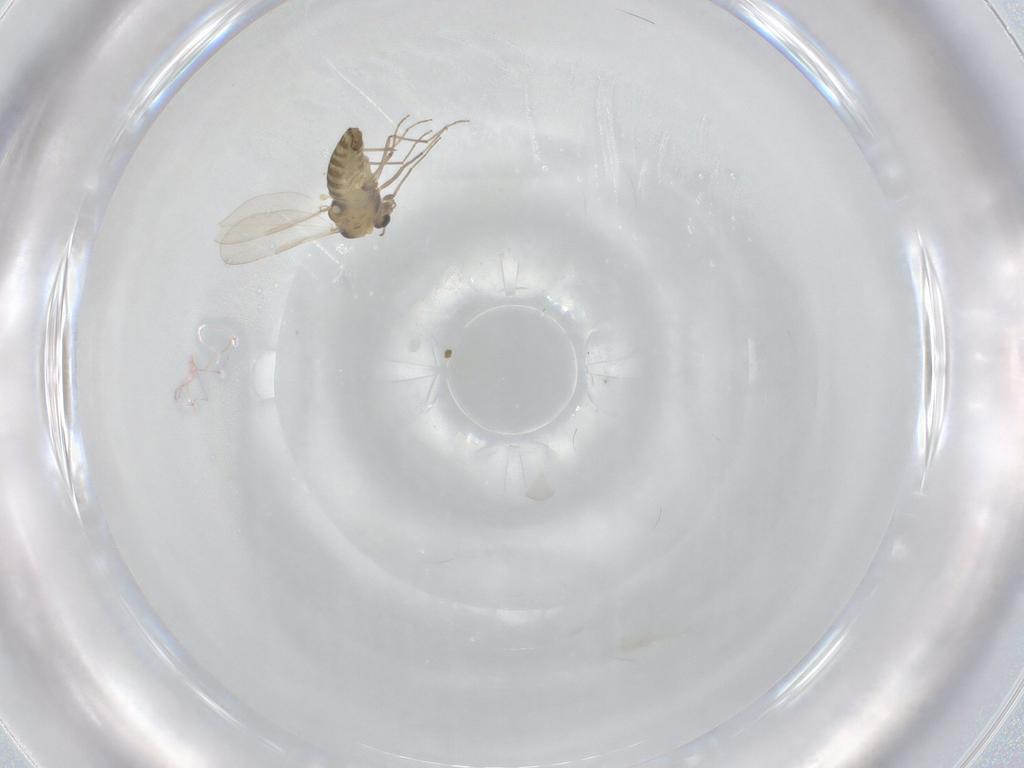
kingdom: Animalia
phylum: Arthropoda
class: Insecta
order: Diptera
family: Chironomidae
